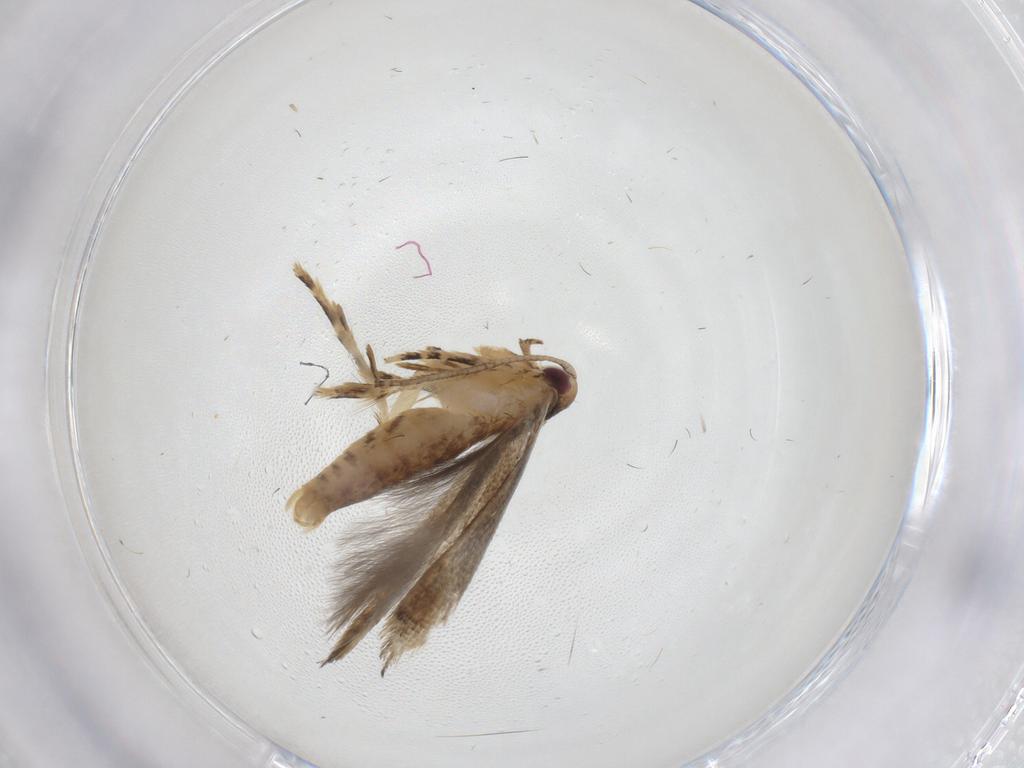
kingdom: Animalia
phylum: Arthropoda
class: Insecta
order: Lepidoptera
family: Momphidae
